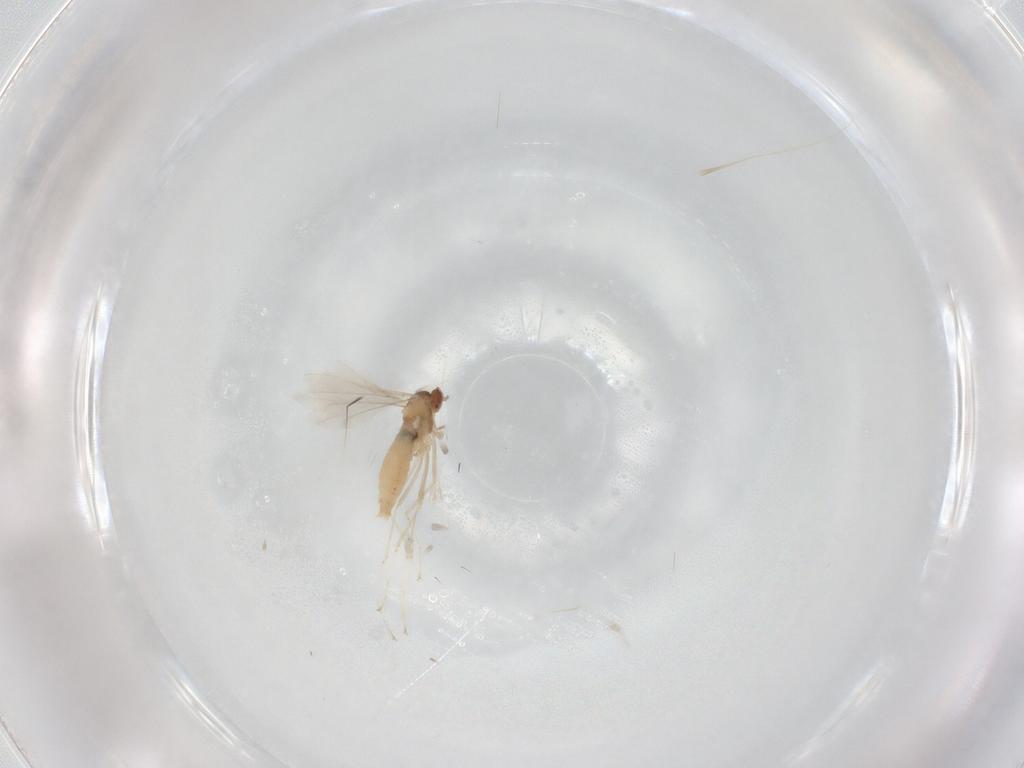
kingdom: Animalia
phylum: Arthropoda
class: Insecta
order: Diptera
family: Cecidomyiidae
